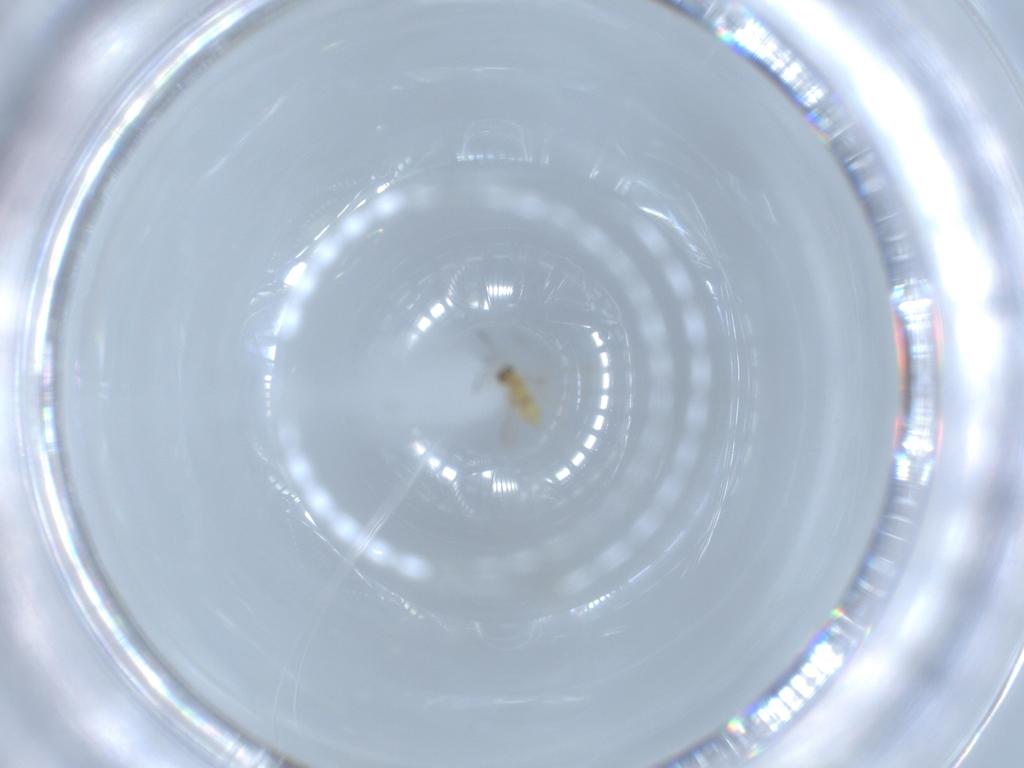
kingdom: Animalia
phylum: Arthropoda
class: Insecta
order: Hymenoptera
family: Mymaridae
